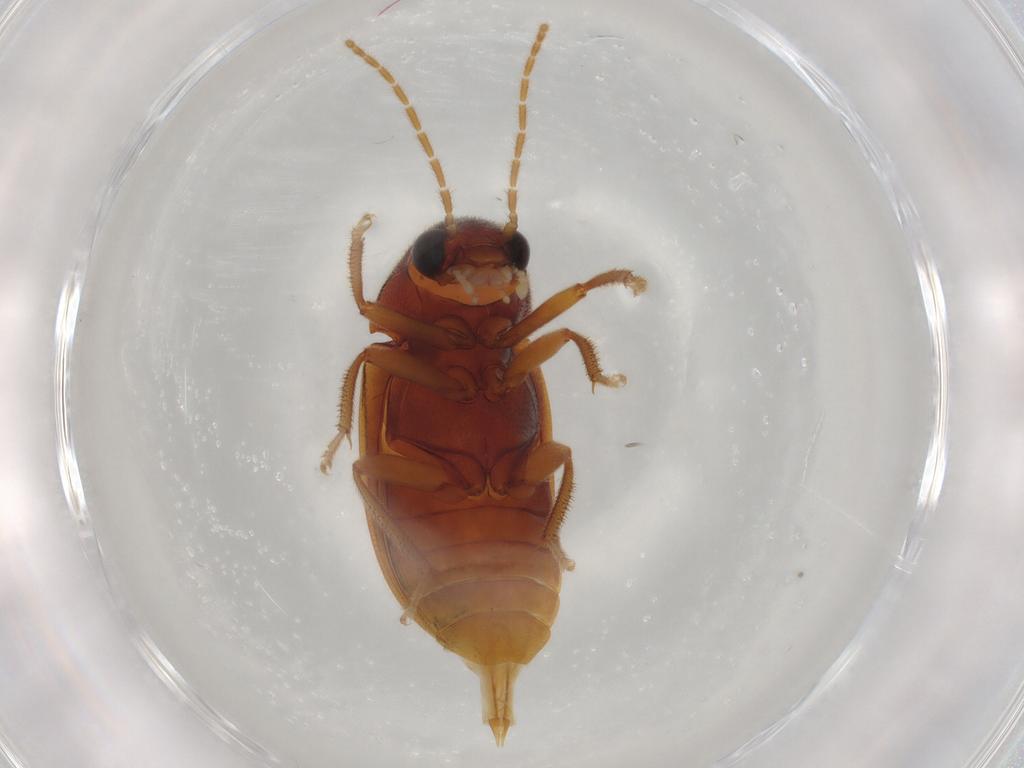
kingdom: Animalia
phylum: Arthropoda
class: Insecta
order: Coleoptera
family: Ptilodactylidae
